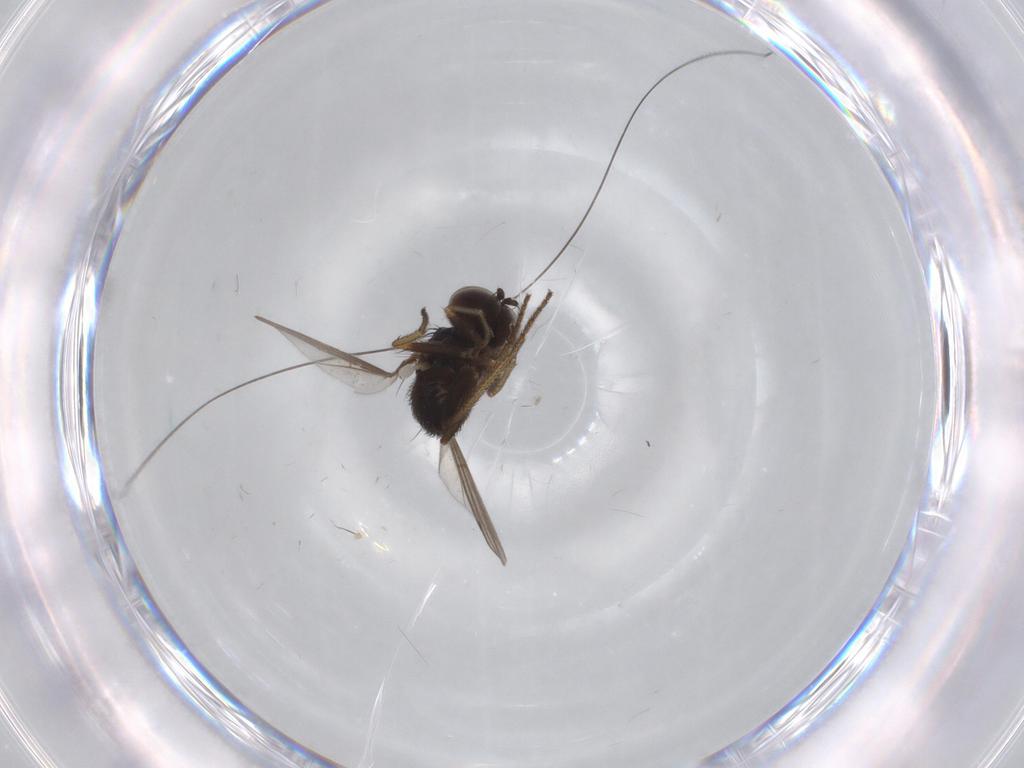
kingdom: Animalia
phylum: Arthropoda
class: Insecta
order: Diptera
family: Dolichopodidae
